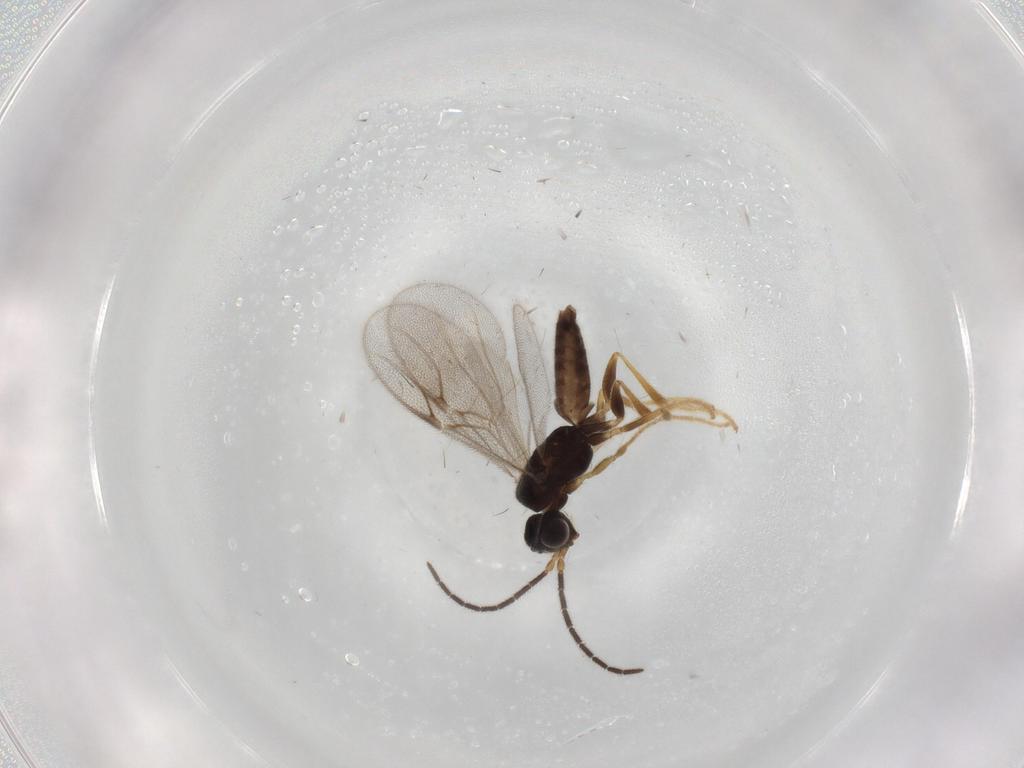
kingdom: Animalia
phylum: Arthropoda
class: Insecta
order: Hymenoptera
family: Dryinidae
